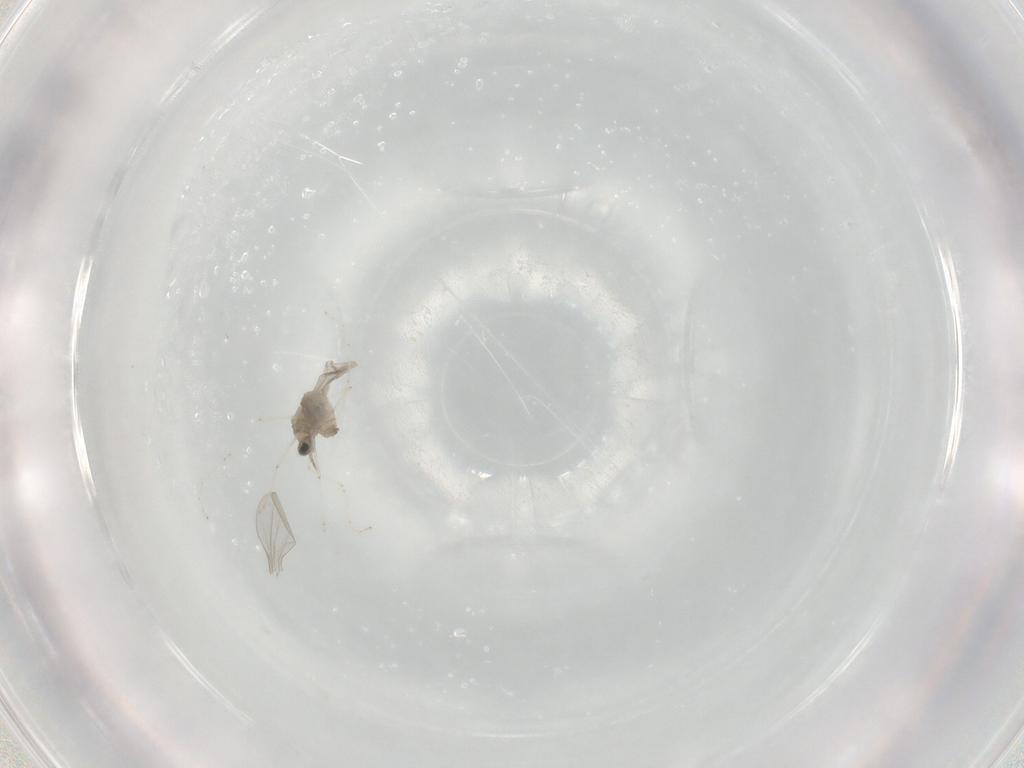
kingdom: Animalia
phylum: Arthropoda
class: Insecta
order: Diptera
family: Cecidomyiidae
